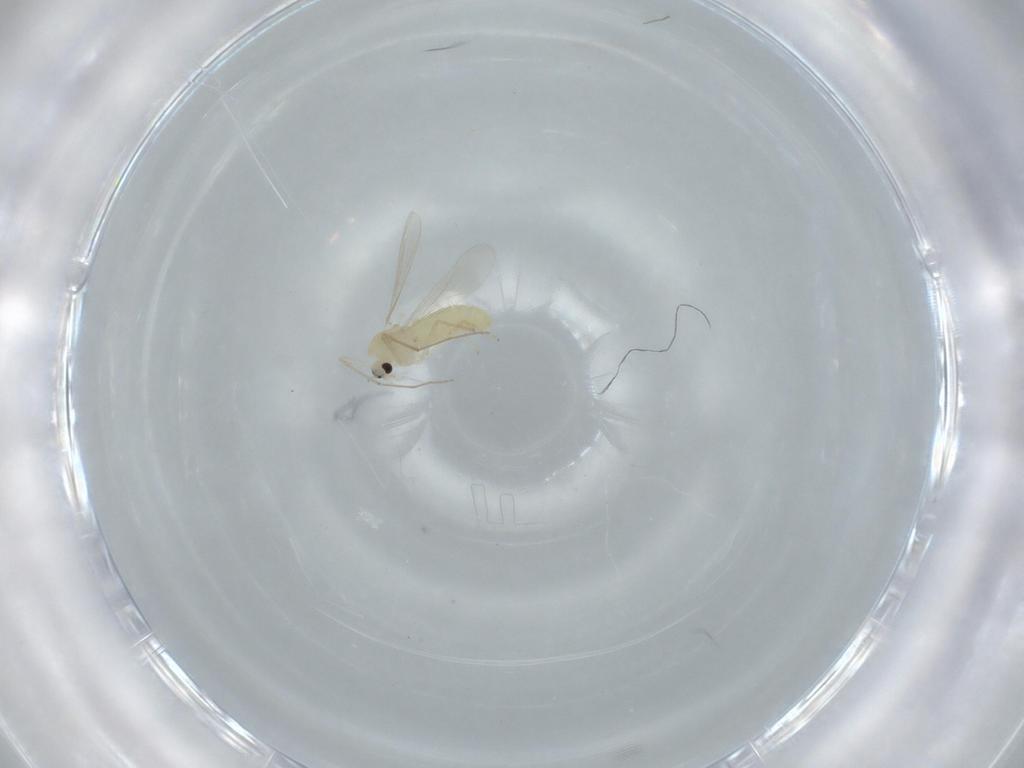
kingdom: Animalia
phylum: Arthropoda
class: Insecta
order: Diptera
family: Chironomidae
